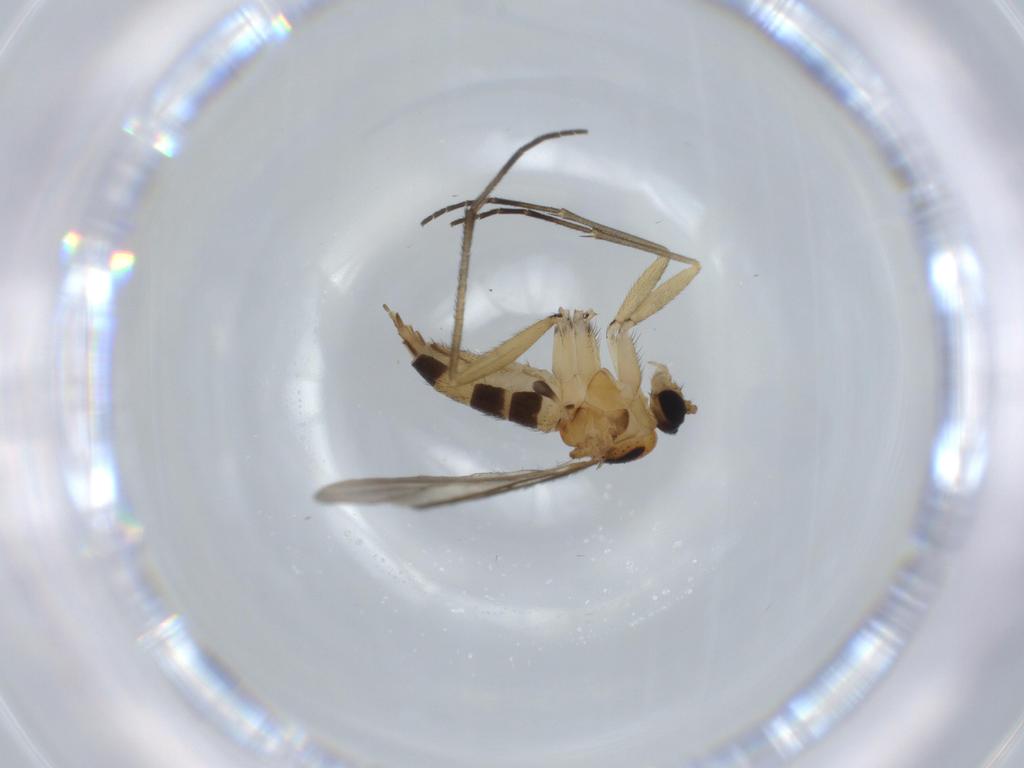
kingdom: Animalia
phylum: Arthropoda
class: Insecta
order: Diptera
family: Sciaridae
